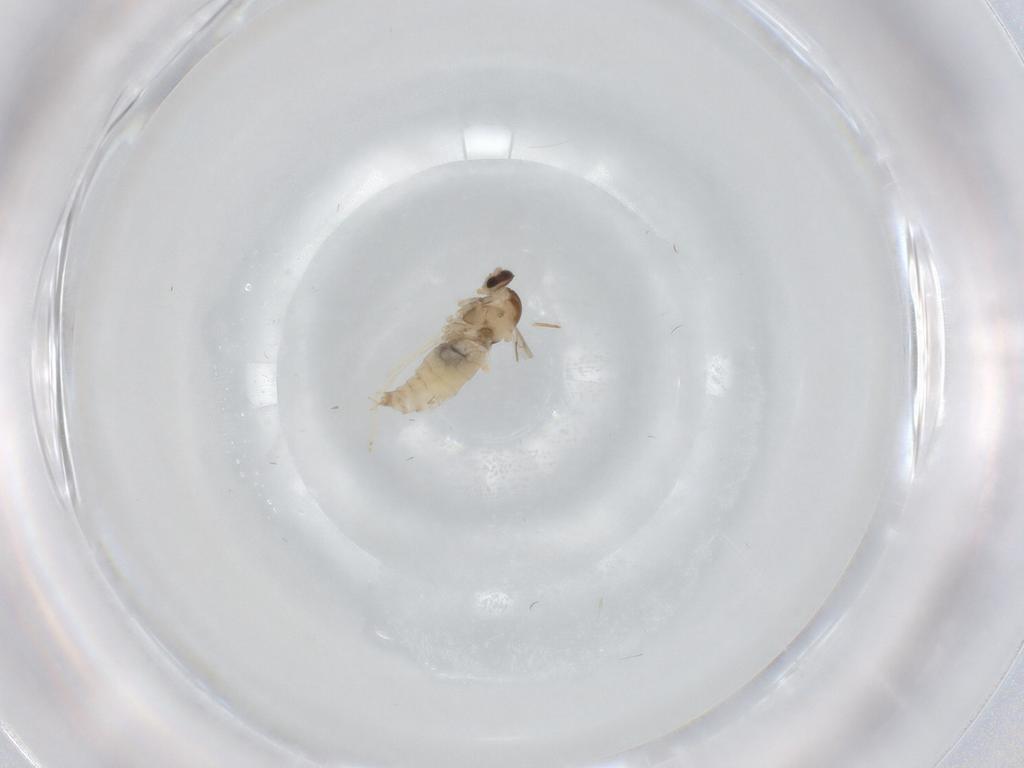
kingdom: Animalia
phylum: Arthropoda
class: Insecta
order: Diptera
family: Cecidomyiidae
